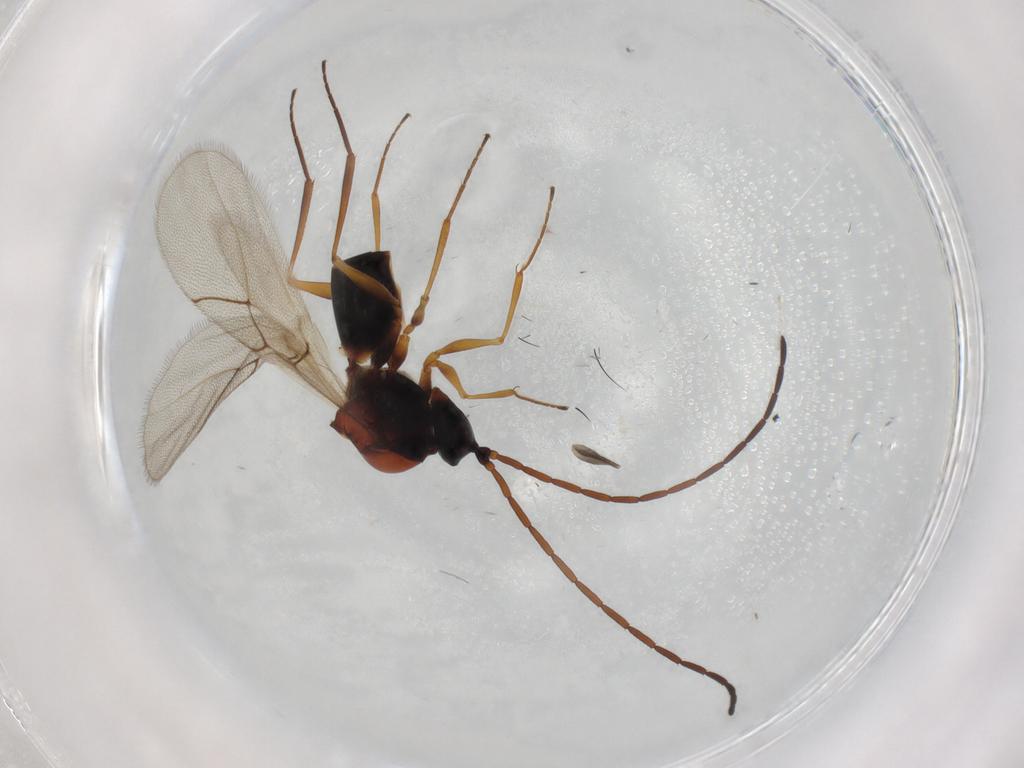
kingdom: Animalia
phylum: Arthropoda
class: Insecta
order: Hymenoptera
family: Figitidae
